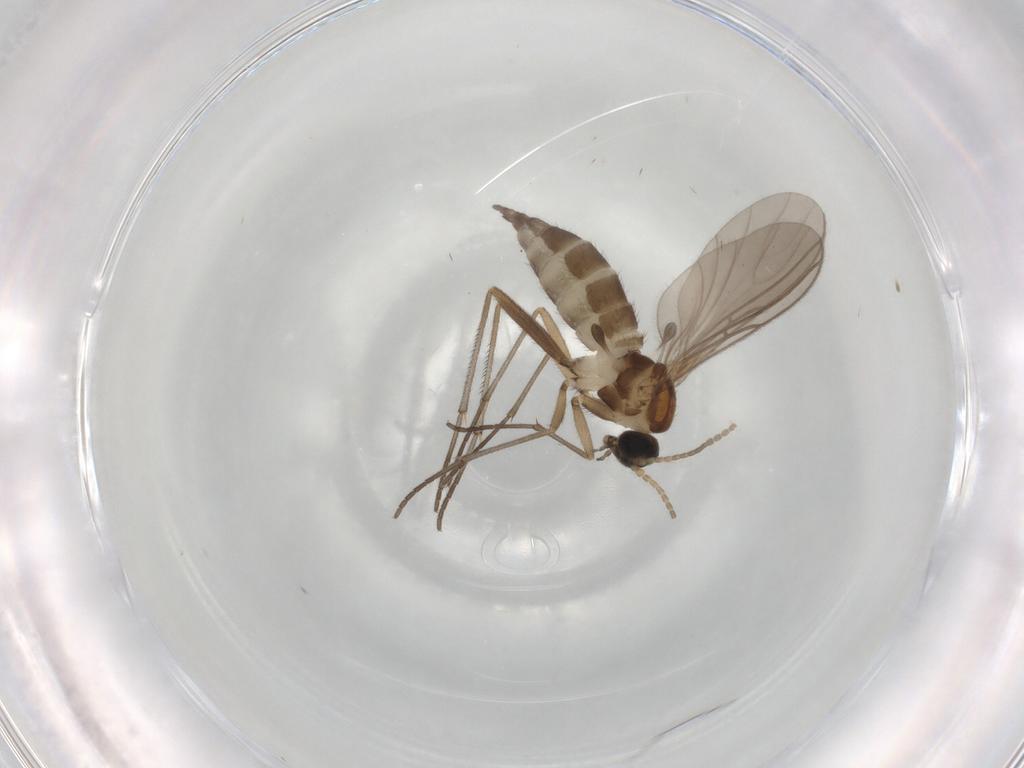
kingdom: Animalia
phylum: Arthropoda
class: Insecta
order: Diptera
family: Sciaridae
